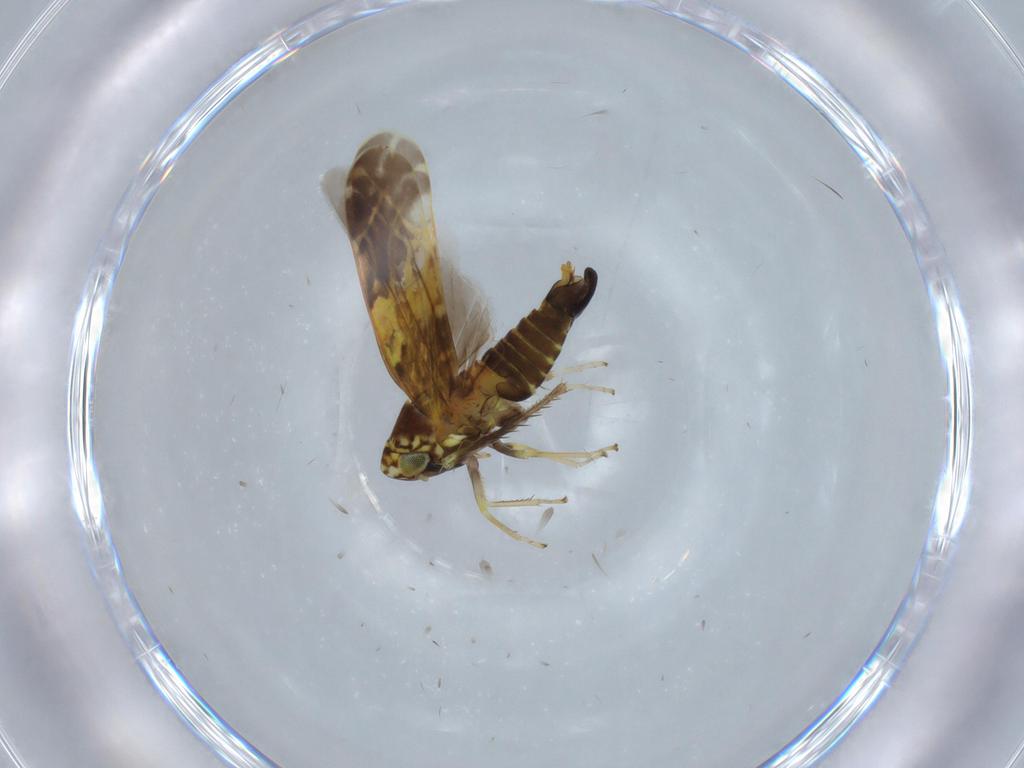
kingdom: Animalia
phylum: Arthropoda
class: Insecta
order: Hemiptera
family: Cicadellidae
